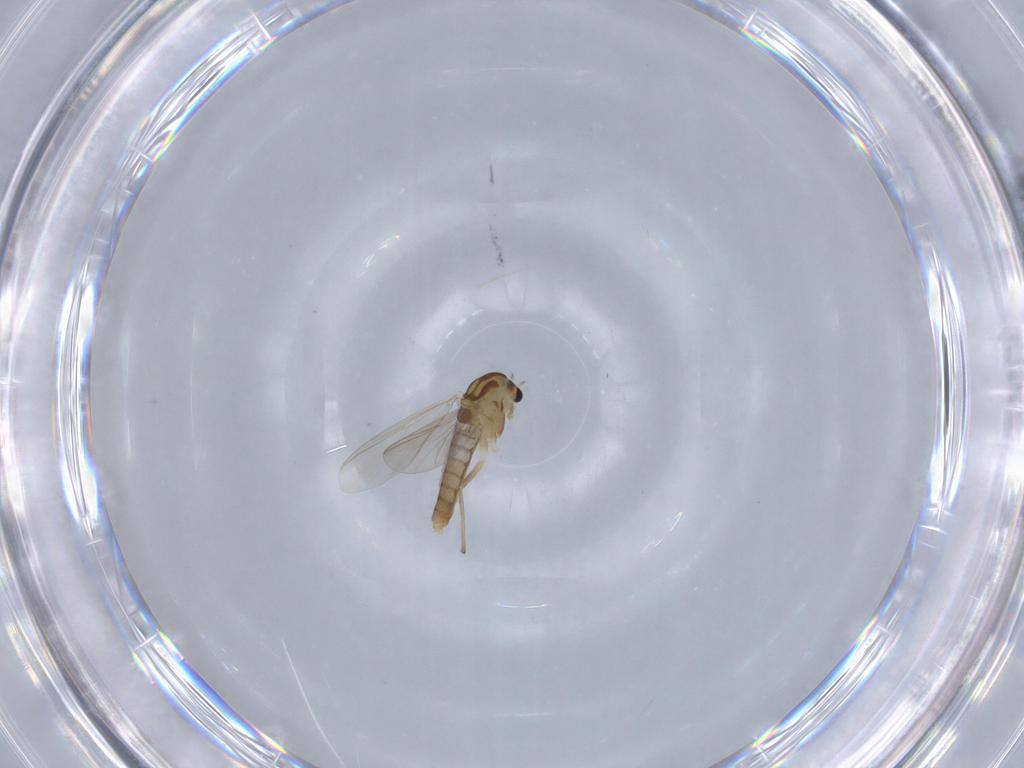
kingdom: Animalia
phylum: Arthropoda
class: Insecta
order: Diptera
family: Chironomidae
